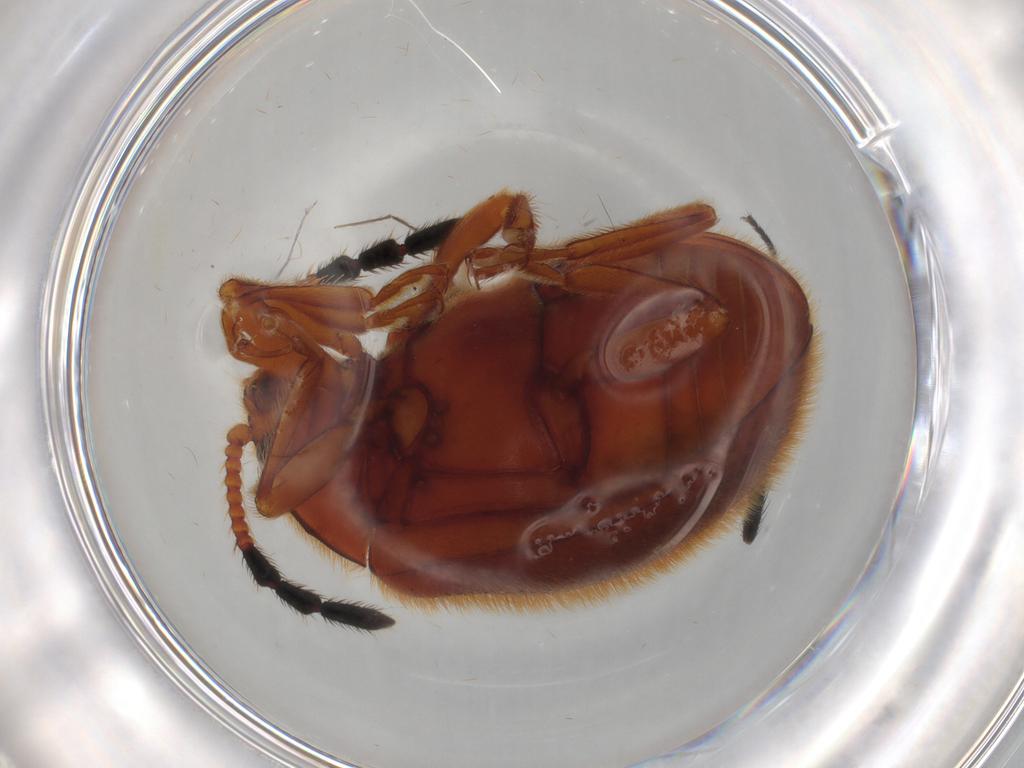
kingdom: Animalia
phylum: Arthropoda
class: Insecta
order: Coleoptera
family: Endomychidae
